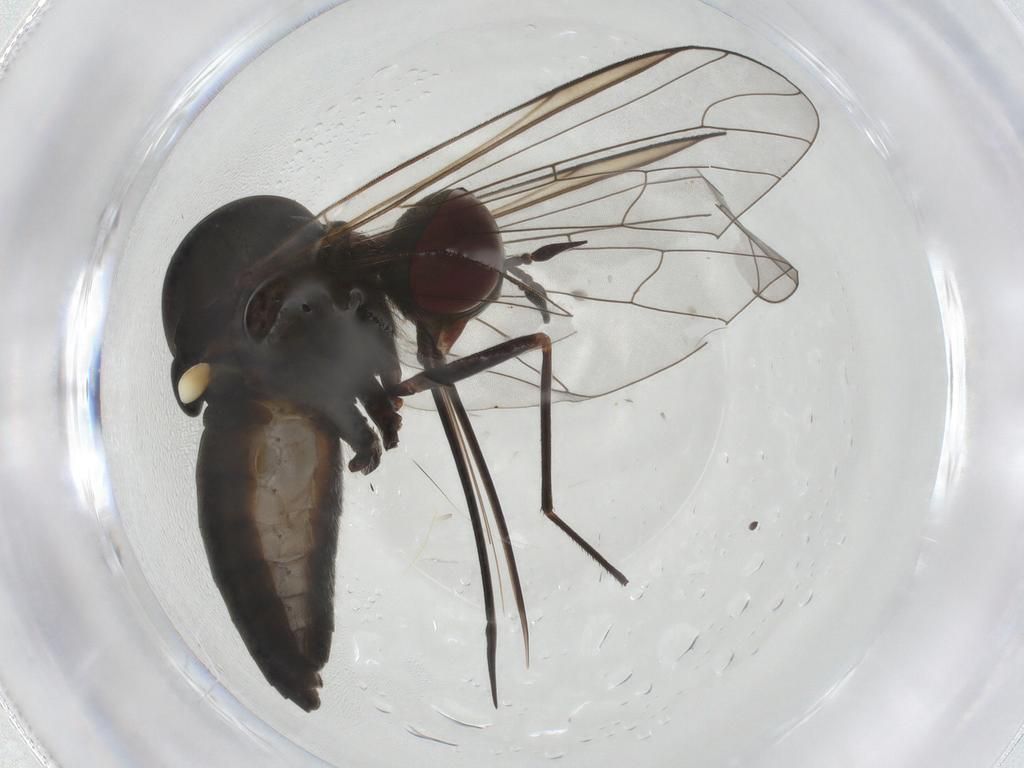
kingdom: Animalia
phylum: Arthropoda
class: Insecta
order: Diptera
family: Bombyliidae
